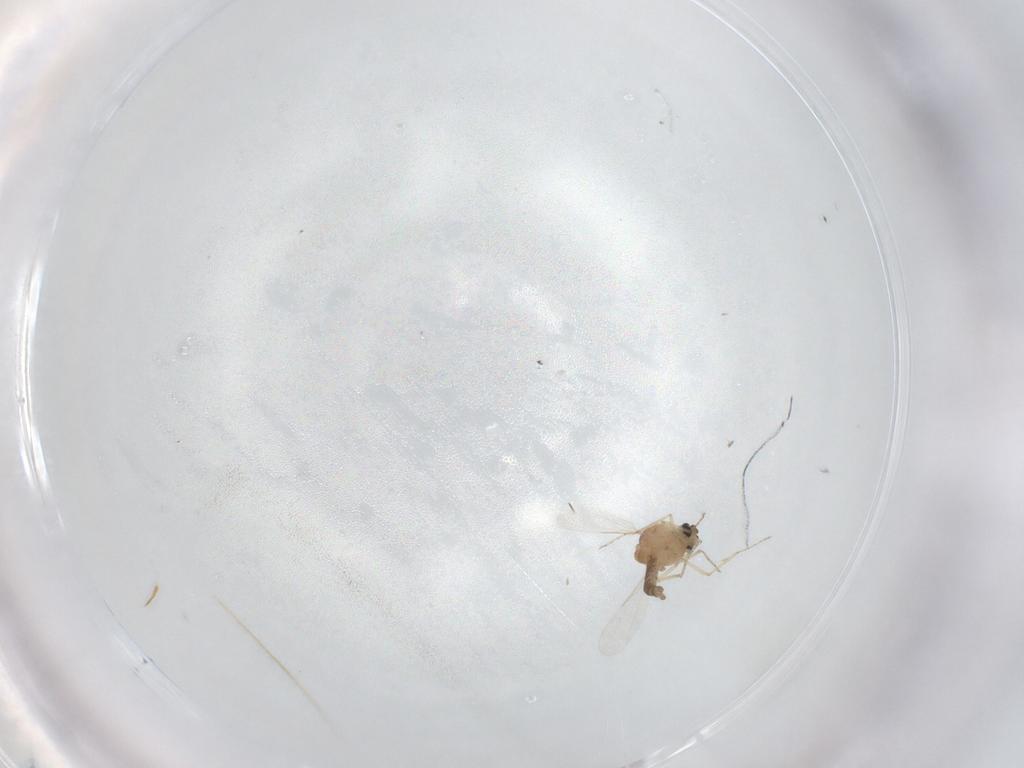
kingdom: Animalia
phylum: Arthropoda
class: Insecta
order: Diptera
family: Ceratopogonidae
